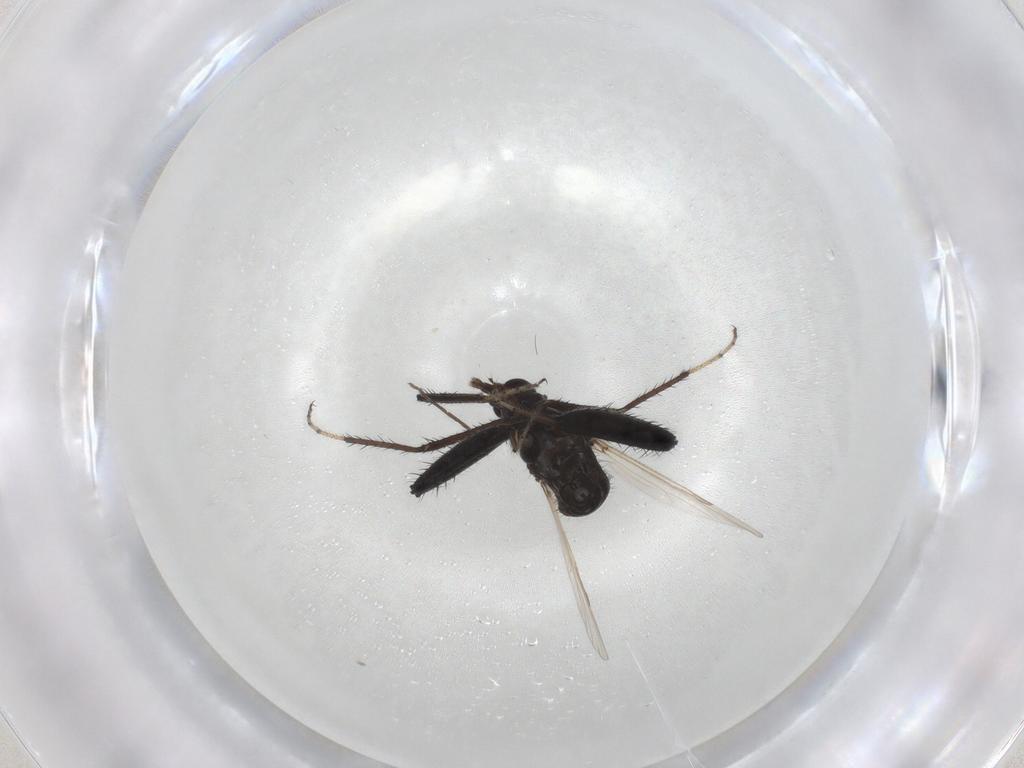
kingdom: Animalia
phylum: Arthropoda
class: Insecta
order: Diptera
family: Ceratopogonidae
